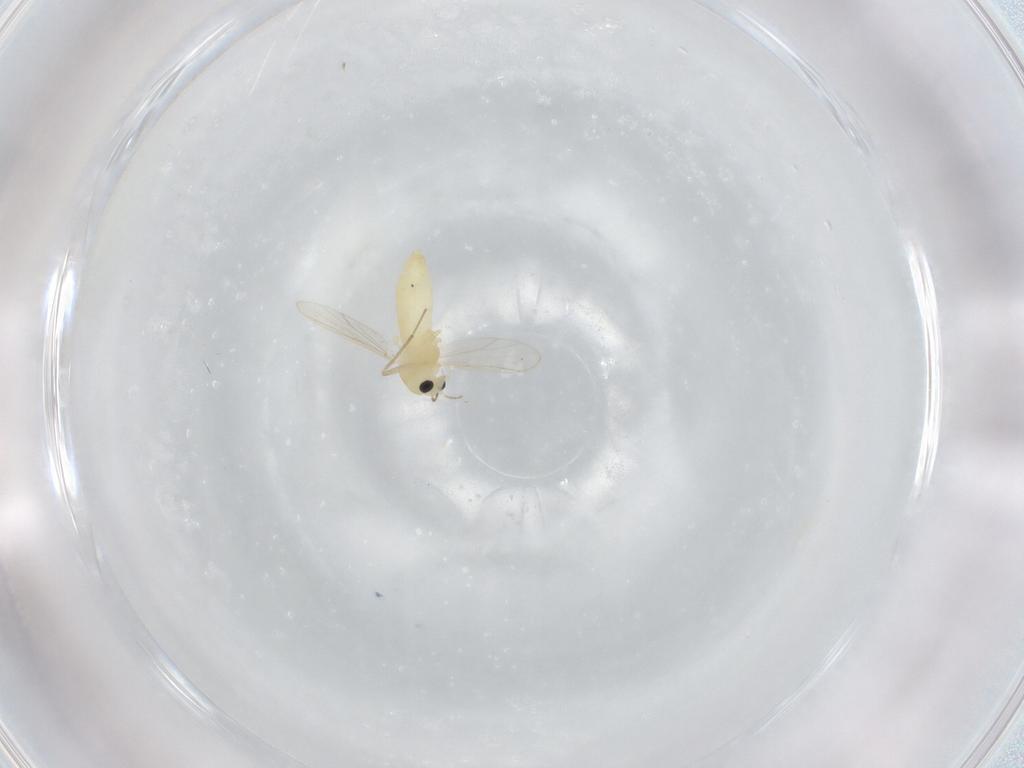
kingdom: Animalia
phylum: Arthropoda
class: Insecta
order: Diptera
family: Chironomidae
